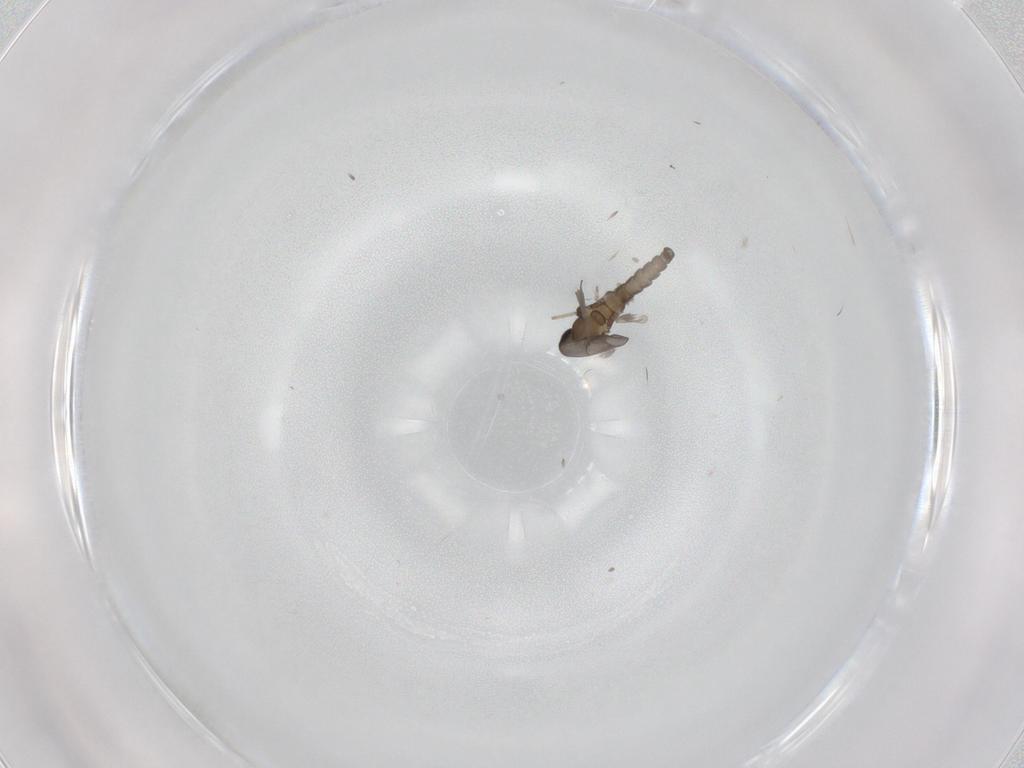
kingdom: Animalia
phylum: Arthropoda
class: Insecta
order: Diptera
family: Cecidomyiidae
